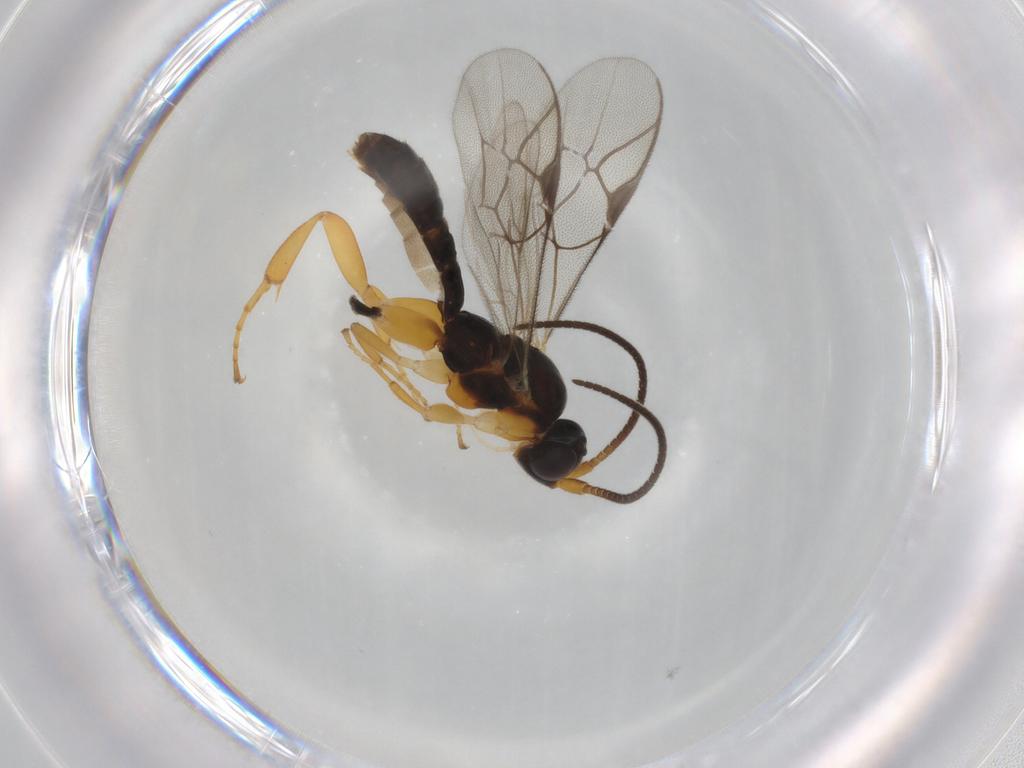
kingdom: Animalia
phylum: Arthropoda
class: Insecta
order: Hymenoptera
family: Ichneumonidae
